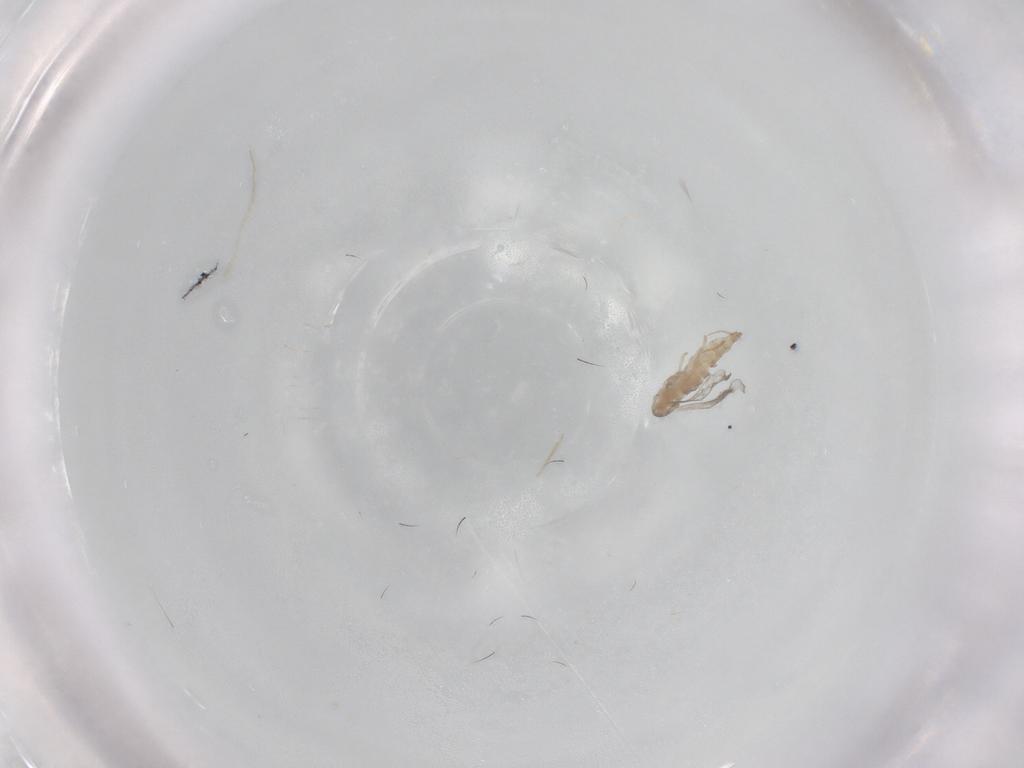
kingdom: Animalia
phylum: Arthropoda
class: Insecta
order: Diptera
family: Cecidomyiidae
